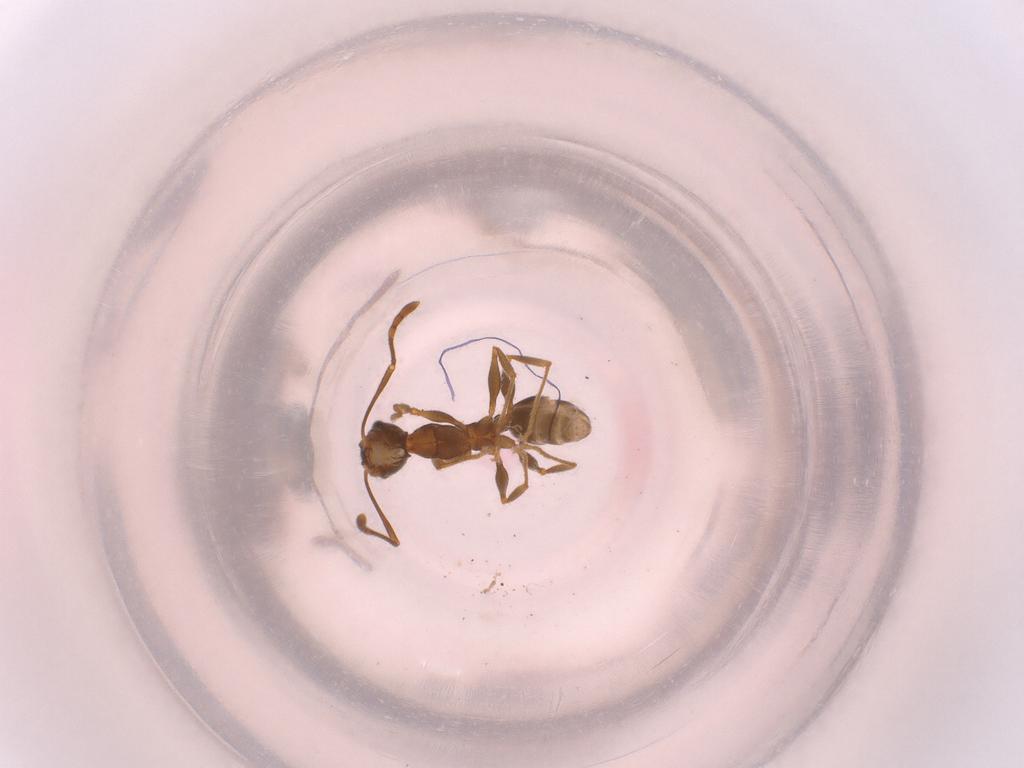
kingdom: Animalia
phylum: Arthropoda
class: Insecta
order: Hymenoptera
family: Formicidae
